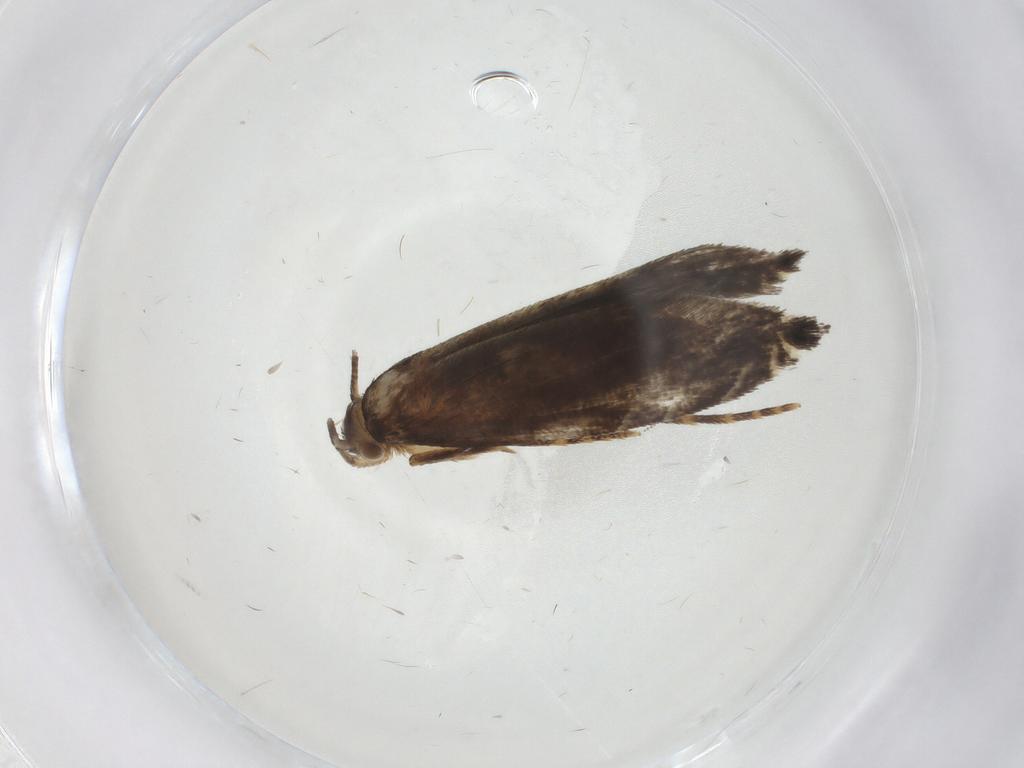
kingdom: Animalia
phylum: Arthropoda
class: Insecta
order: Lepidoptera
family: Tineidae
